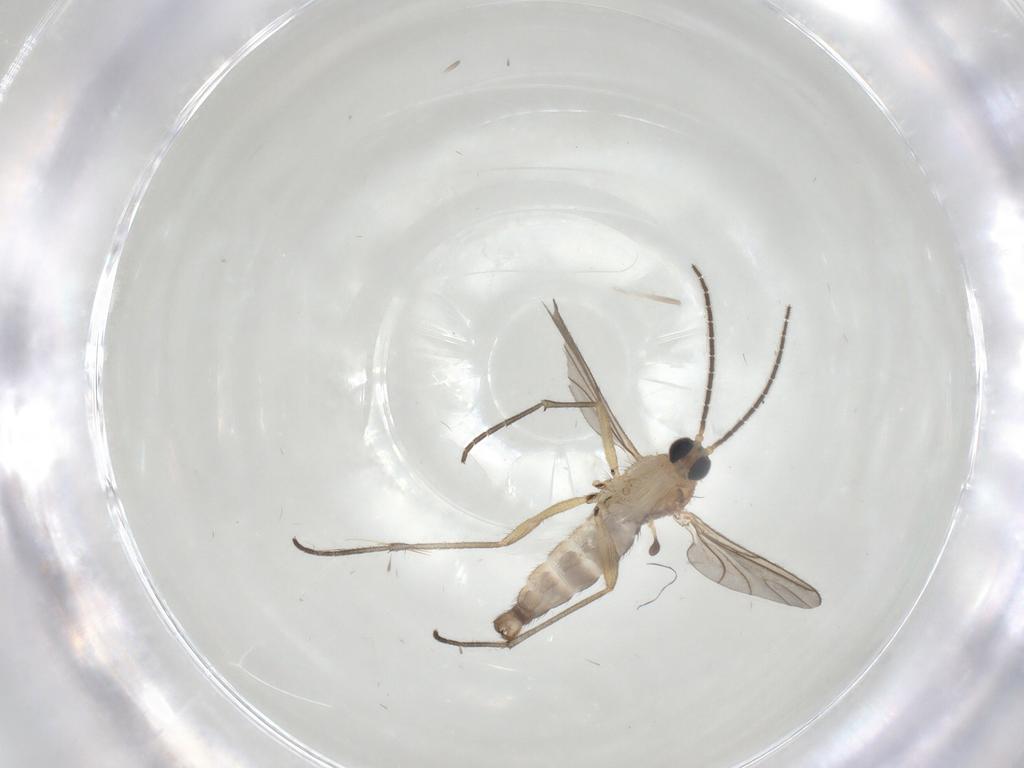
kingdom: Animalia
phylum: Arthropoda
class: Insecta
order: Diptera
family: Sciaridae
